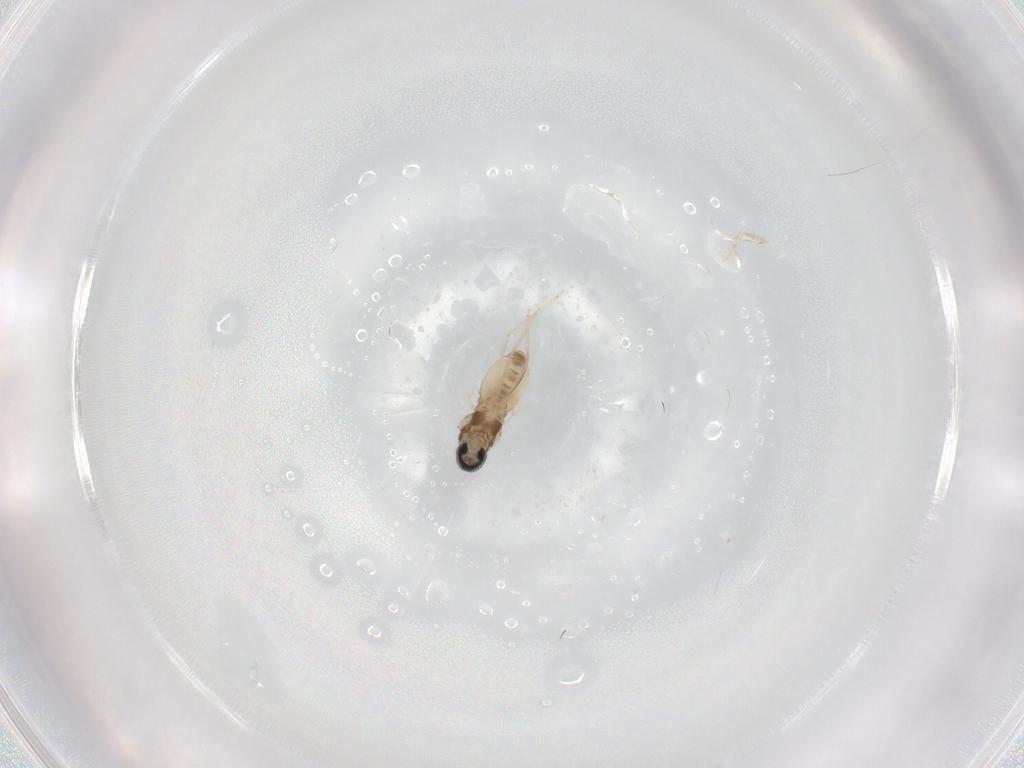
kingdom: Animalia
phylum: Arthropoda
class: Insecta
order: Diptera
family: Cecidomyiidae
